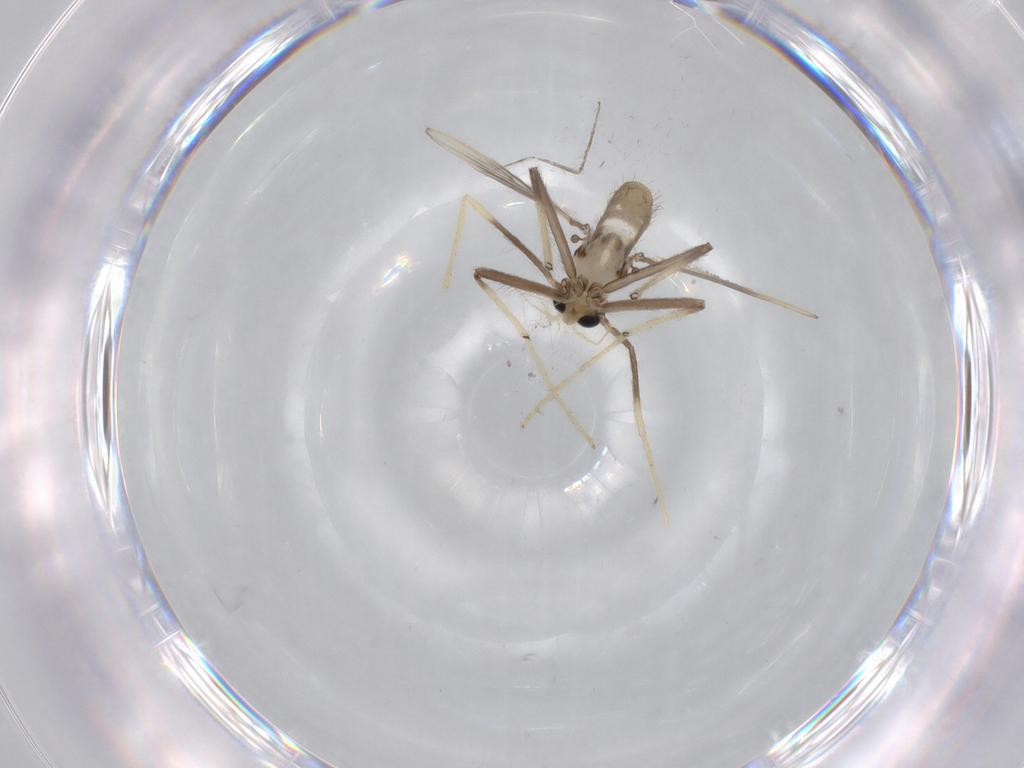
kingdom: Animalia
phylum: Arthropoda
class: Insecta
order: Diptera
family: Chironomidae
